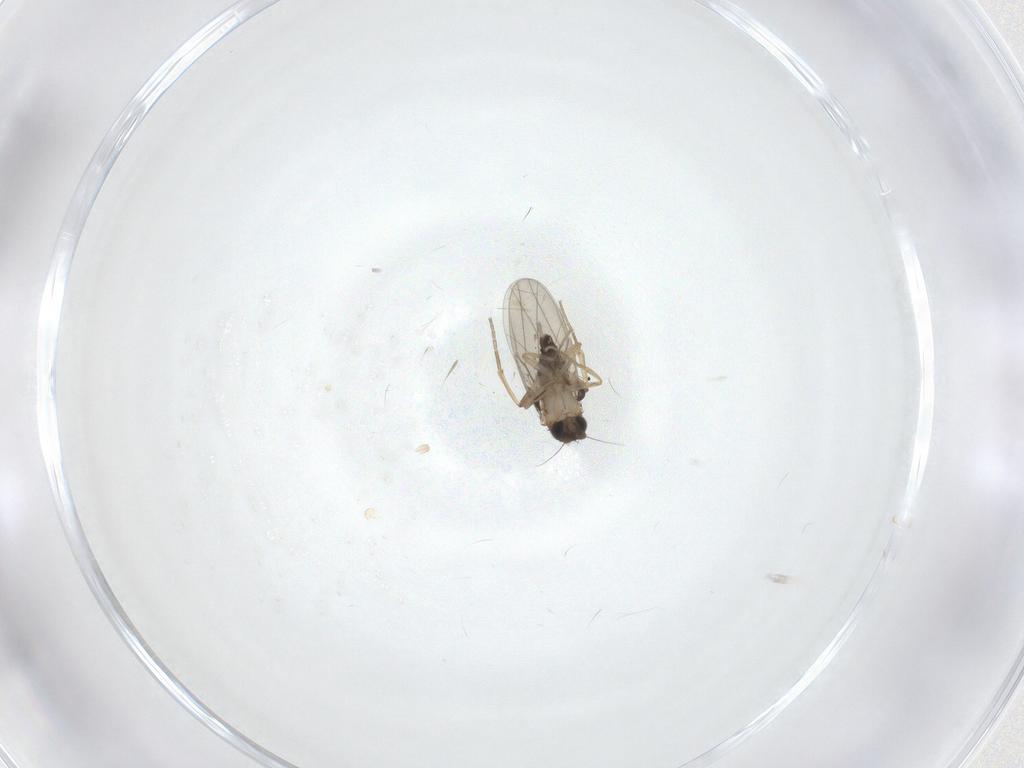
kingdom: Animalia
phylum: Arthropoda
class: Insecta
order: Diptera
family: Phoridae
